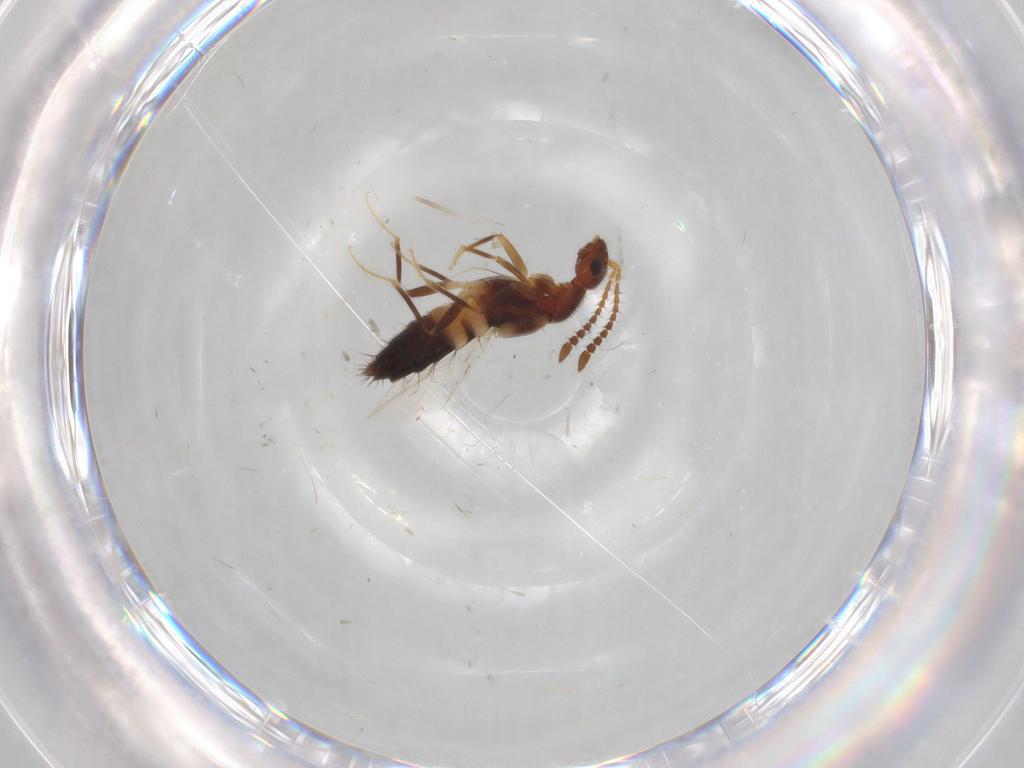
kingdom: Animalia
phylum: Arthropoda
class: Insecta
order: Coleoptera
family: Staphylinidae
